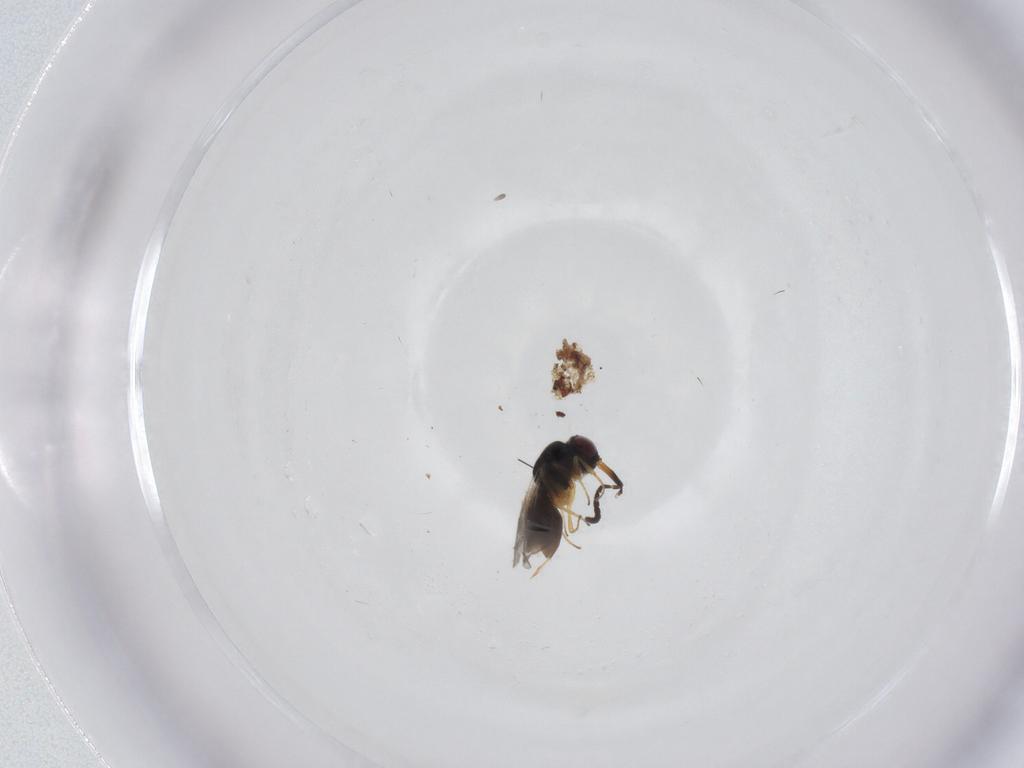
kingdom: Animalia
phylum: Arthropoda
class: Insecta
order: Hymenoptera
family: Megaspilidae
